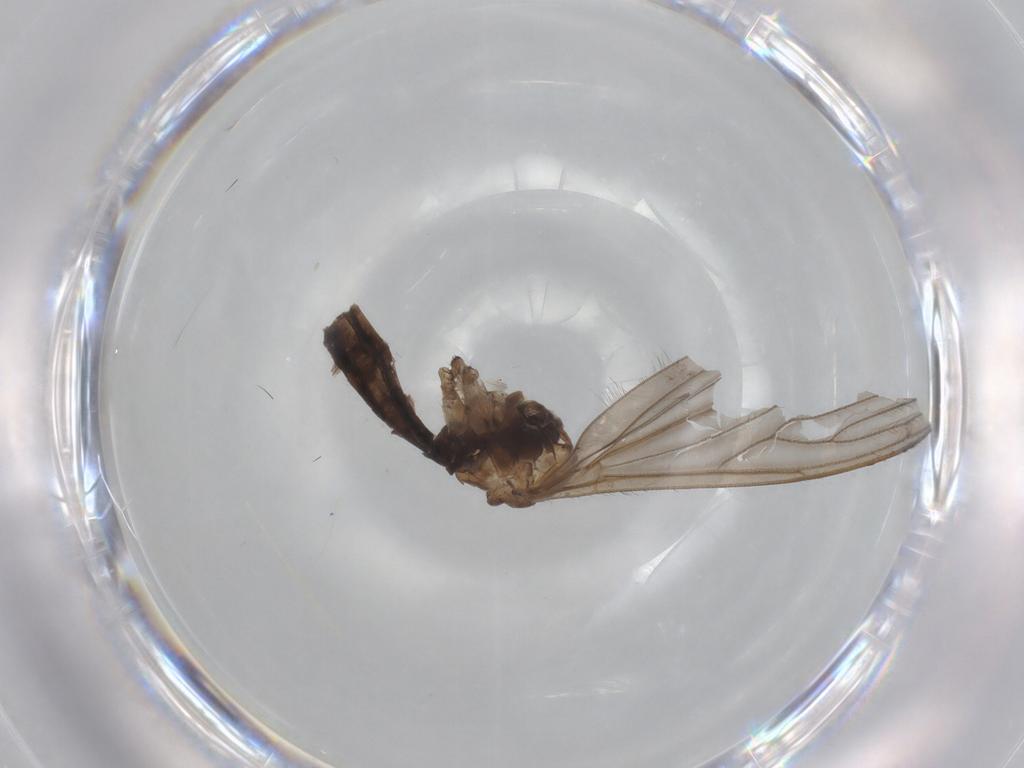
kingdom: Animalia
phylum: Arthropoda
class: Insecta
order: Diptera
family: Limoniidae
